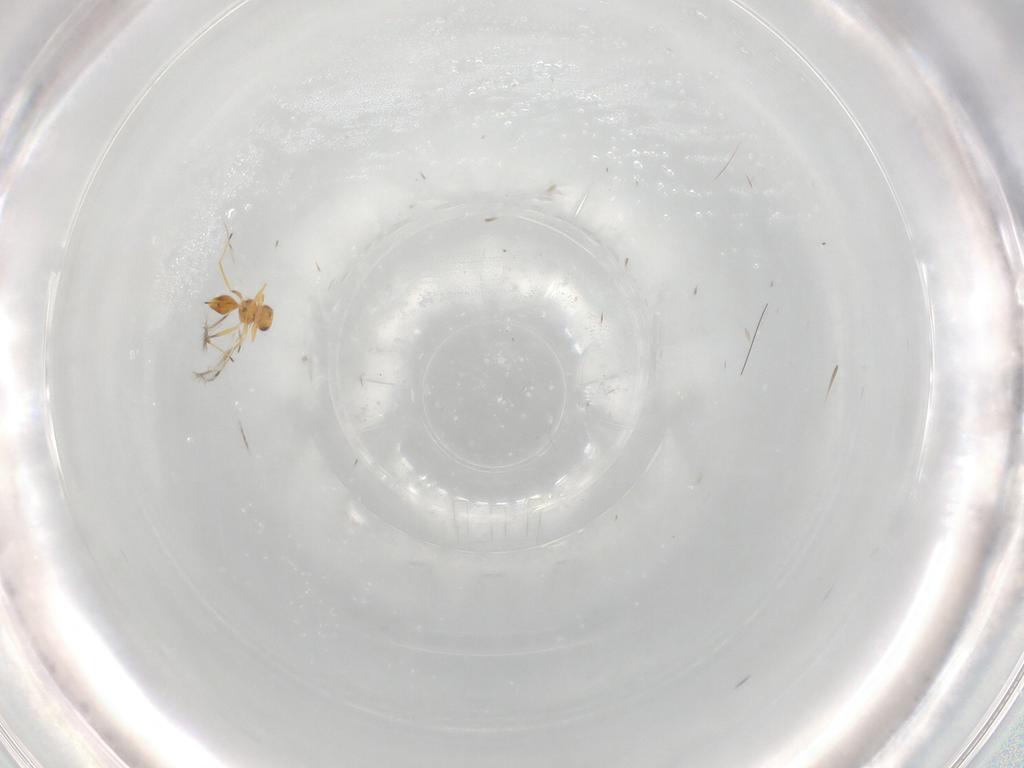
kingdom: Animalia
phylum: Arthropoda
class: Insecta
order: Hymenoptera
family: Mymaridae
